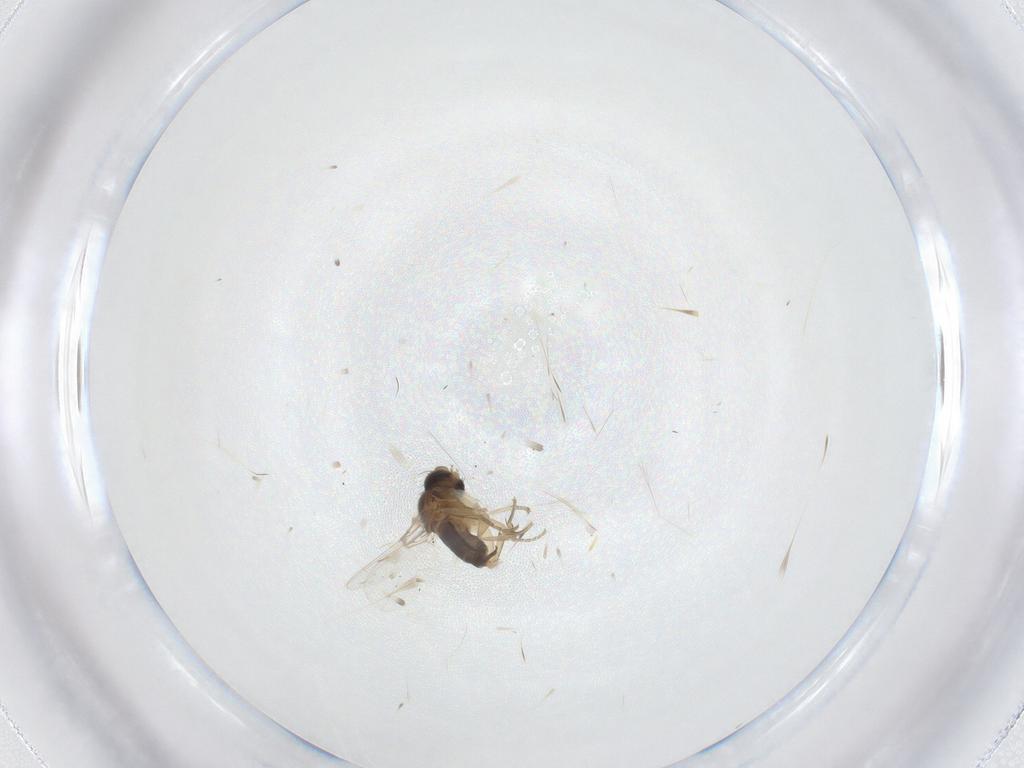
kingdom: Animalia
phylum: Arthropoda
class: Insecta
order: Diptera
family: Phoridae
